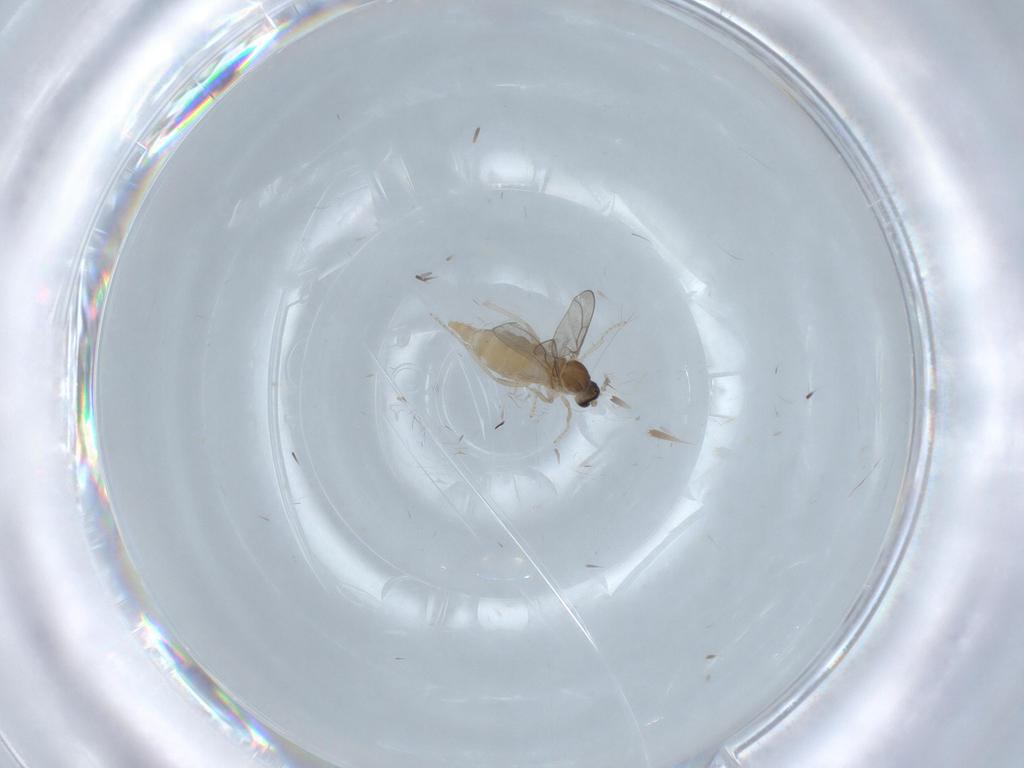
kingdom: Animalia
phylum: Arthropoda
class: Insecta
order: Diptera
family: Cecidomyiidae
